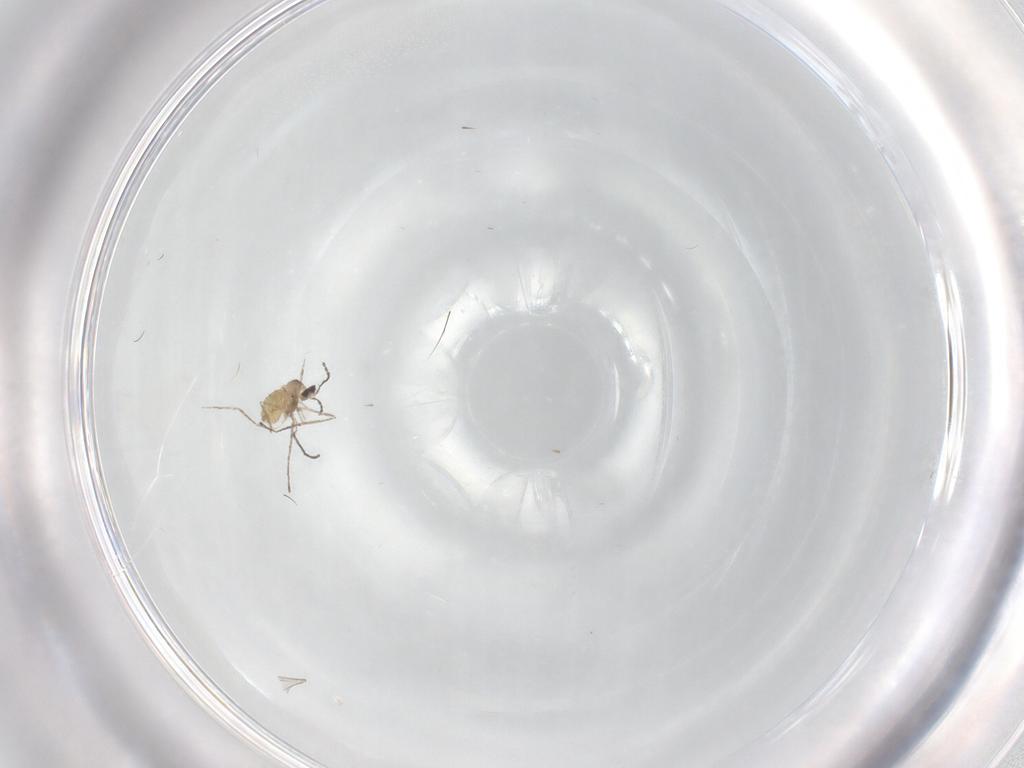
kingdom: Animalia
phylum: Arthropoda
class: Insecta
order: Diptera
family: Cecidomyiidae
